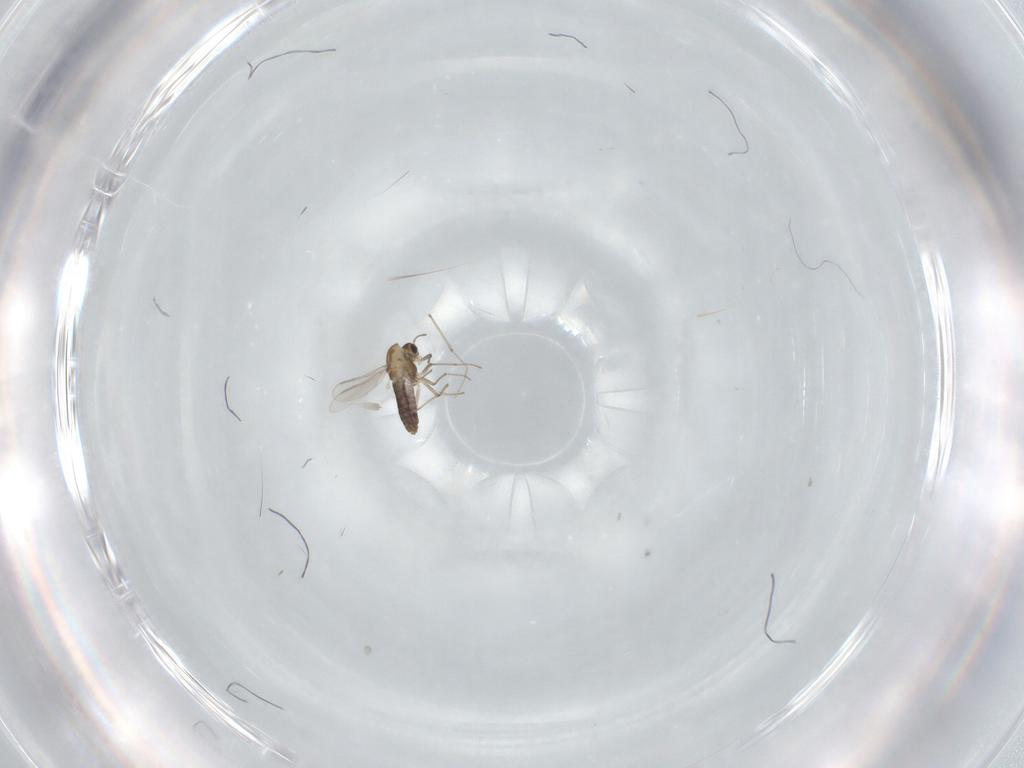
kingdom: Animalia
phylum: Arthropoda
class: Insecta
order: Diptera
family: Chironomidae
